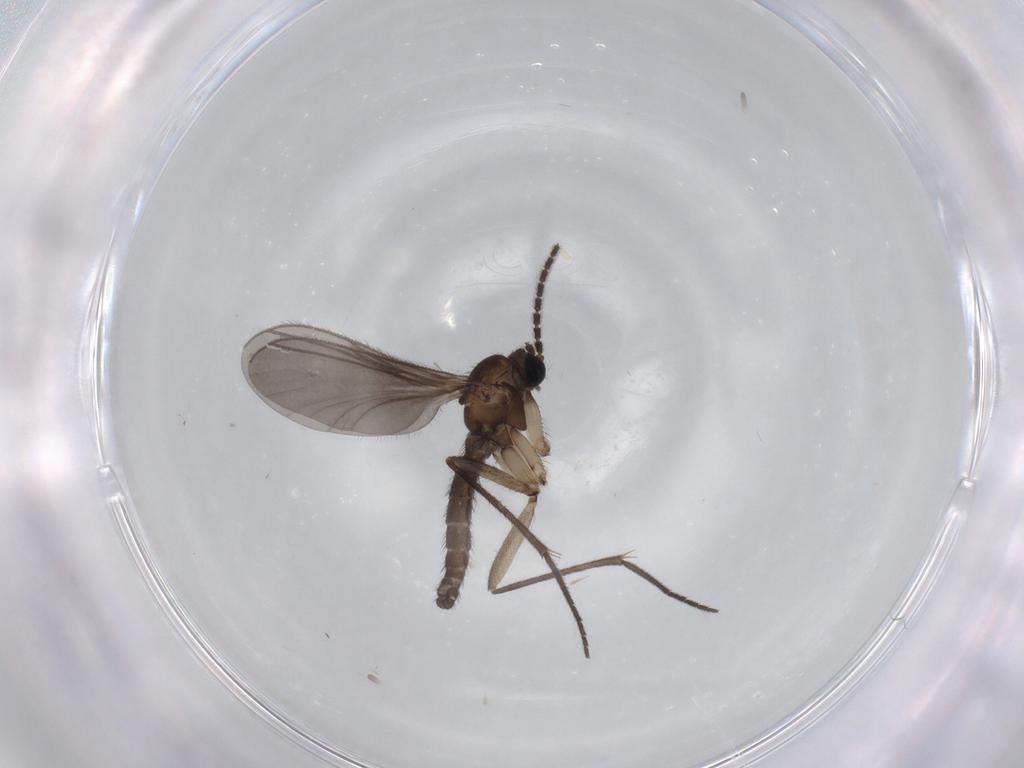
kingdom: Animalia
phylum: Arthropoda
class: Insecta
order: Diptera
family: Sciaridae
